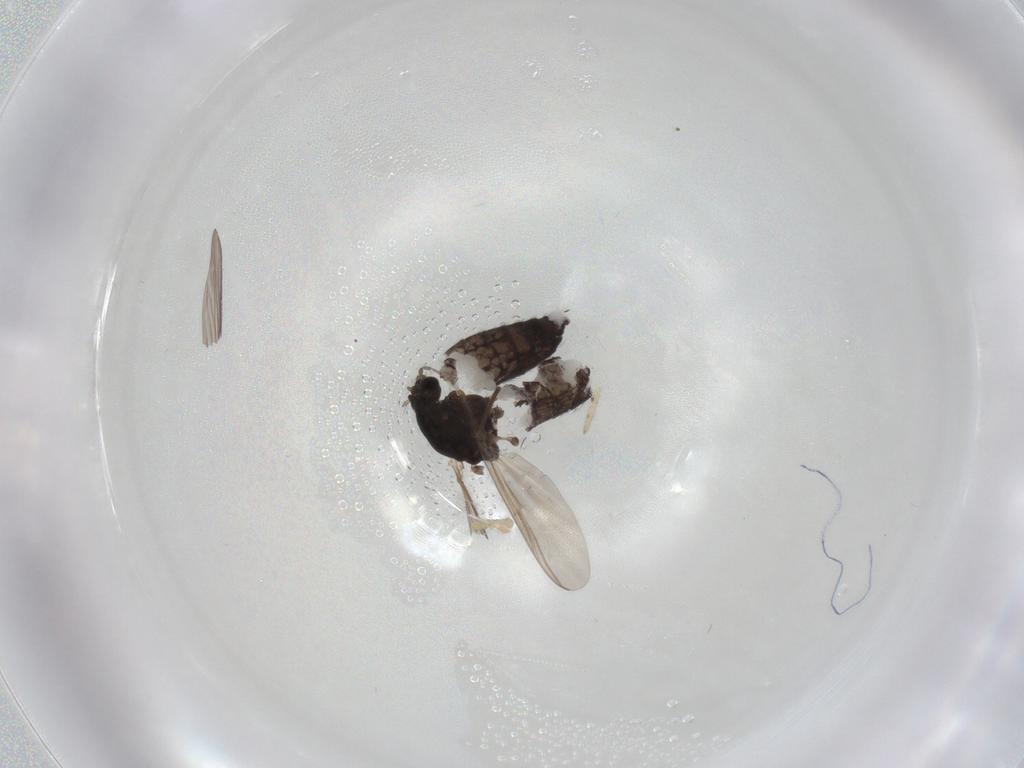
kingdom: Animalia
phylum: Arthropoda
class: Insecta
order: Diptera
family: Chironomidae
